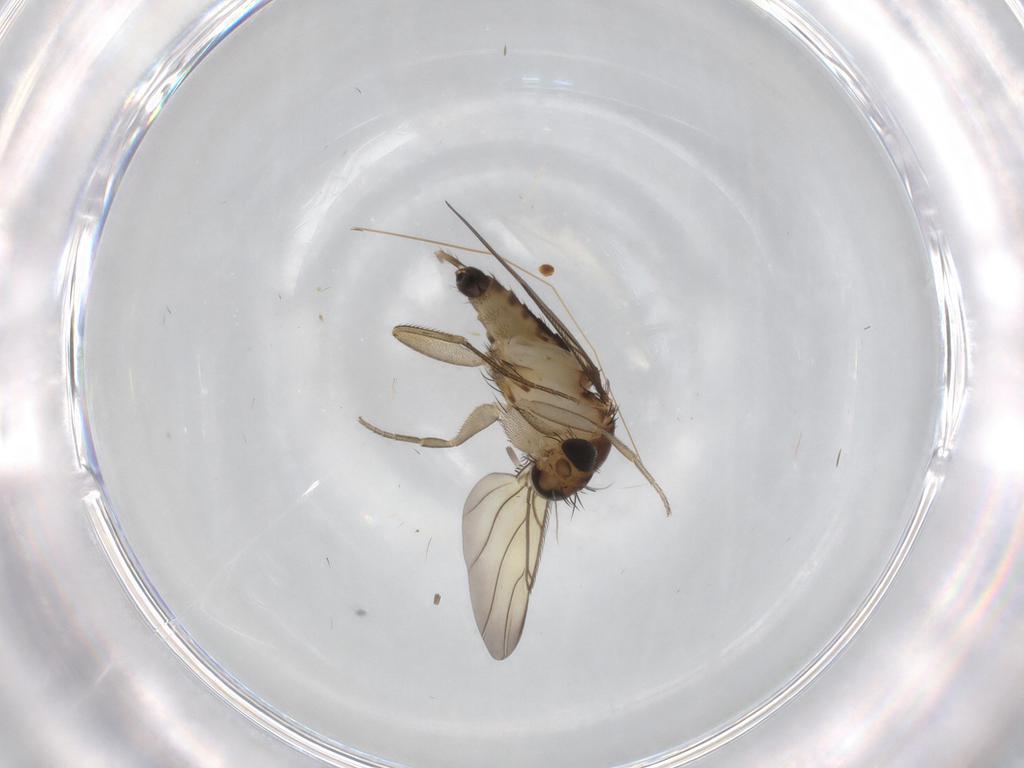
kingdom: Animalia
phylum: Arthropoda
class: Insecta
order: Diptera
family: Phoridae
